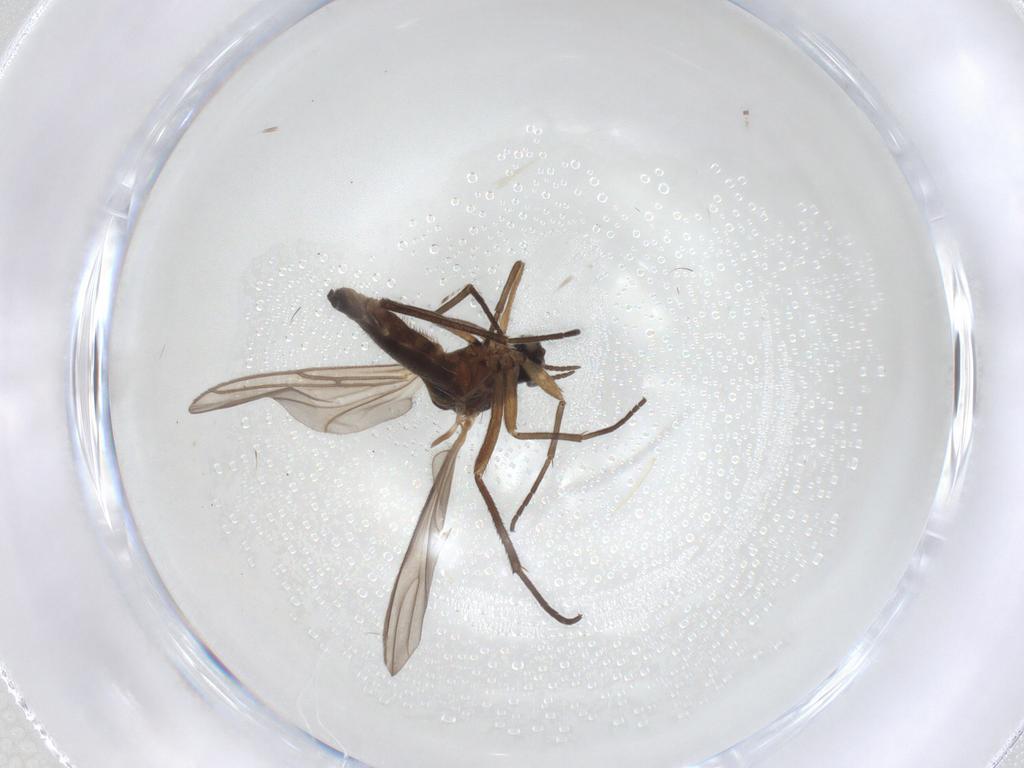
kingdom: Animalia
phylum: Arthropoda
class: Insecta
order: Diptera
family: Sciaridae
